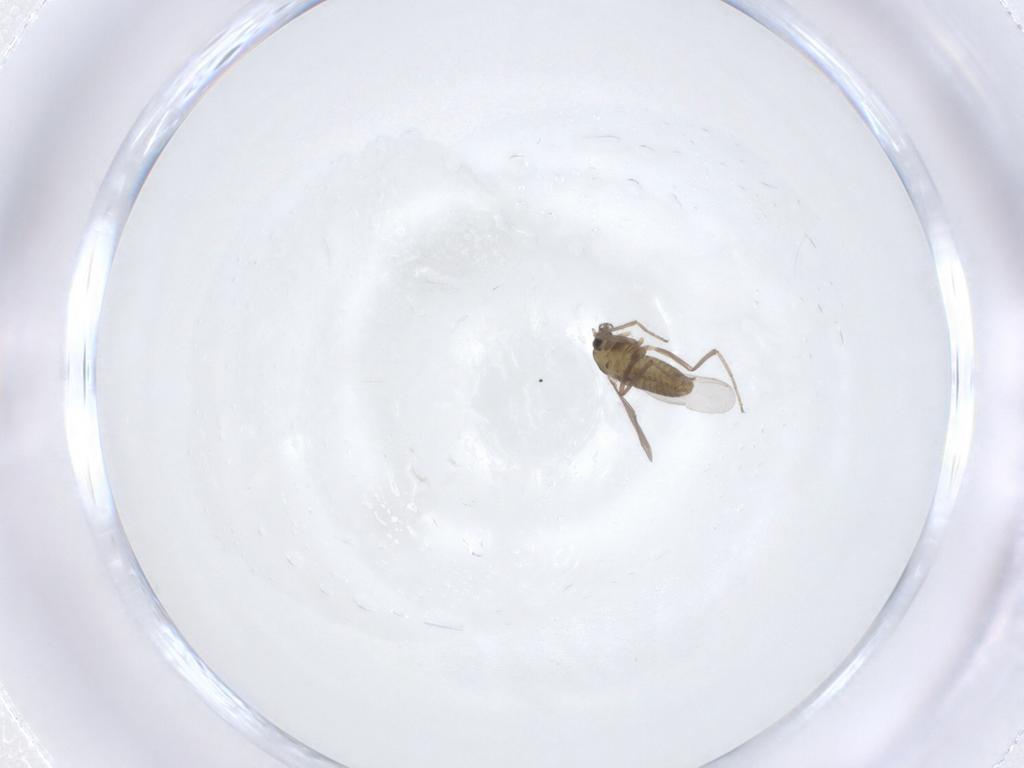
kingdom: Animalia
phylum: Arthropoda
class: Insecta
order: Diptera
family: Chironomidae
